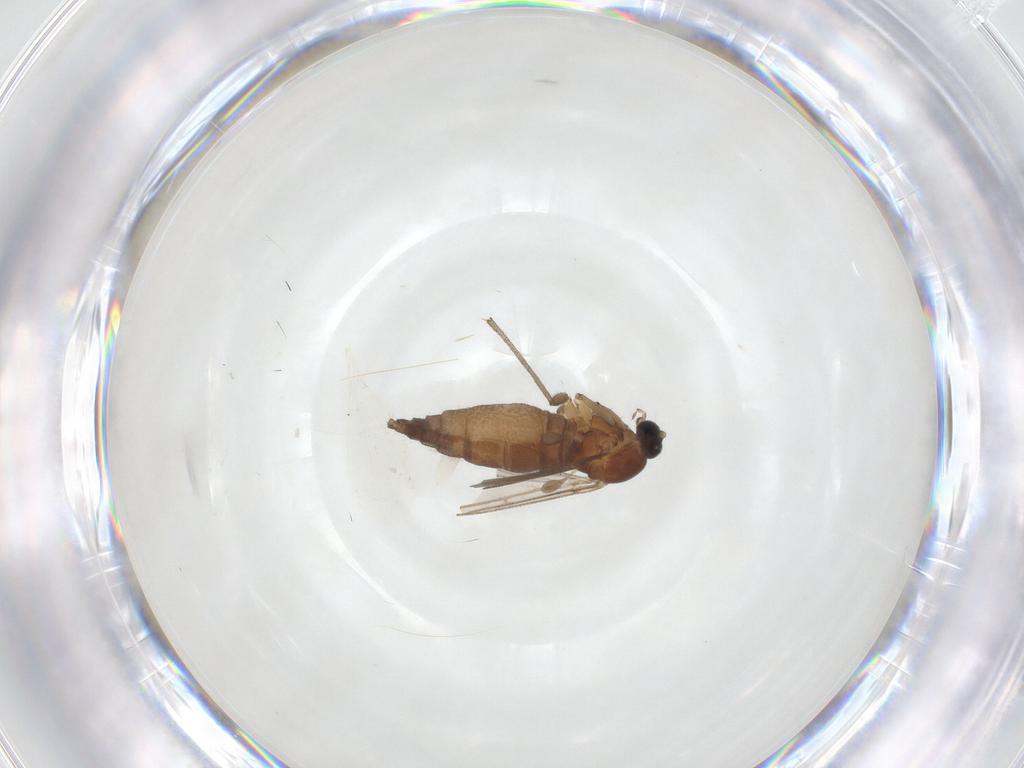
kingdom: Animalia
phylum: Arthropoda
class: Insecta
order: Diptera
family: Sciaridae
